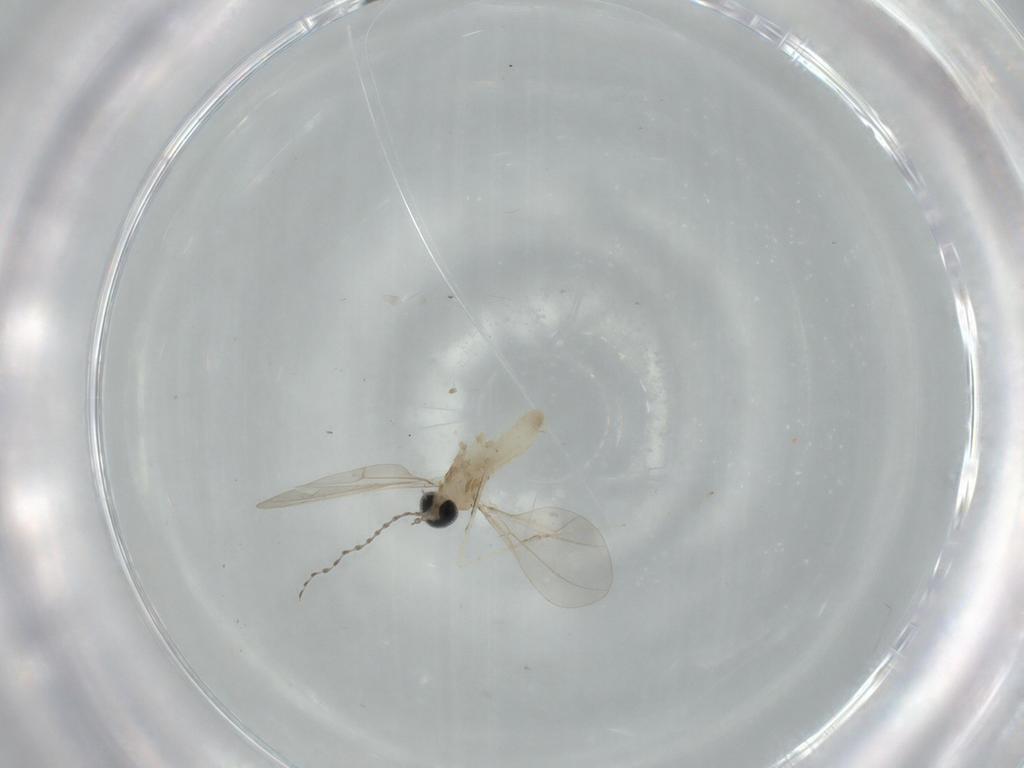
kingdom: Animalia
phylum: Arthropoda
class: Insecta
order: Diptera
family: Cecidomyiidae
